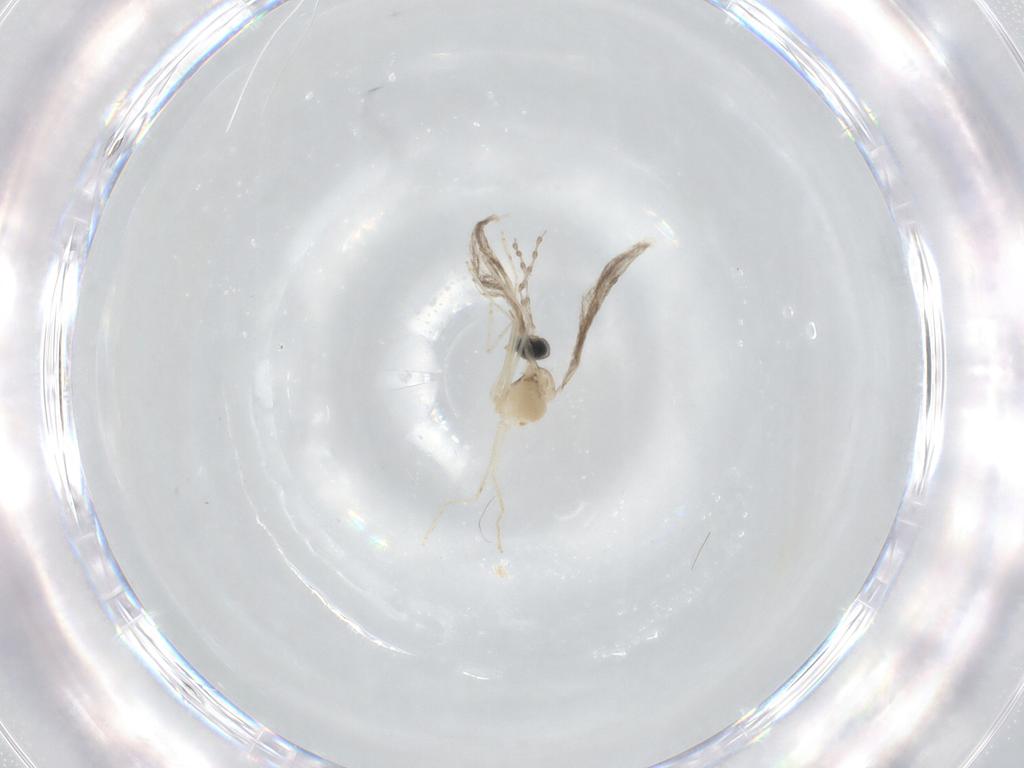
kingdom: Animalia
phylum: Arthropoda
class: Insecta
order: Diptera
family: Cecidomyiidae
